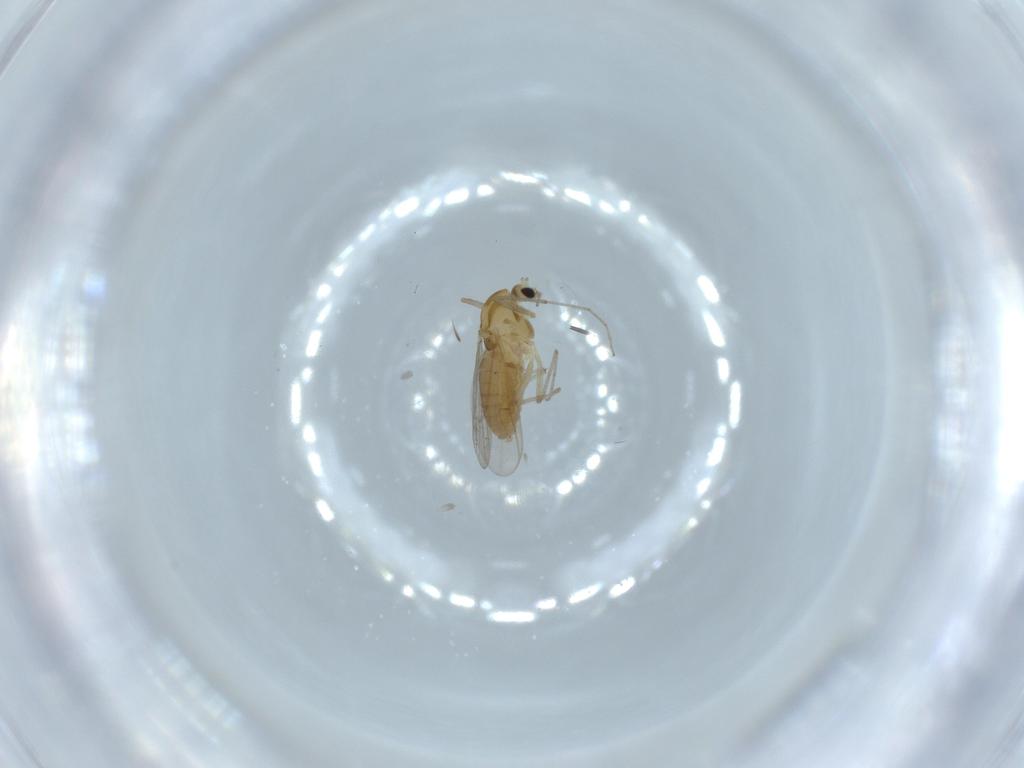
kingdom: Animalia
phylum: Arthropoda
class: Insecta
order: Diptera
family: Chironomidae
